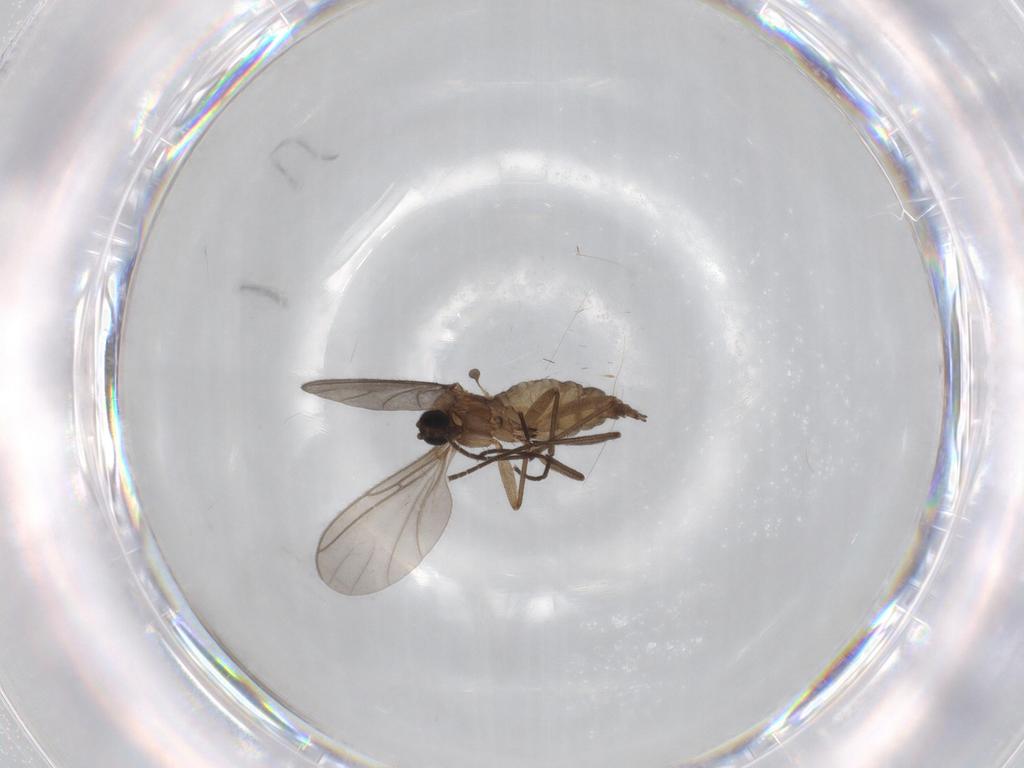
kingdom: Animalia
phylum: Arthropoda
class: Insecta
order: Diptera
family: Sciaridae
